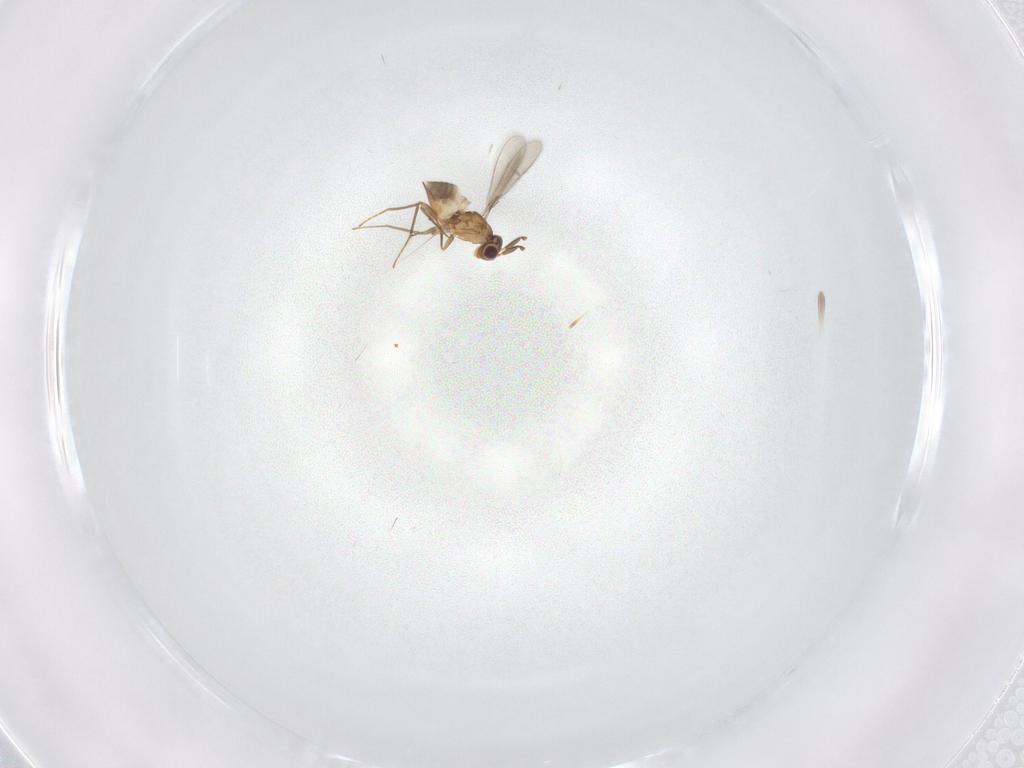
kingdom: Animalia
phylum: Arthropoda
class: Insecta
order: Hymenoptera
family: Mymaridae
